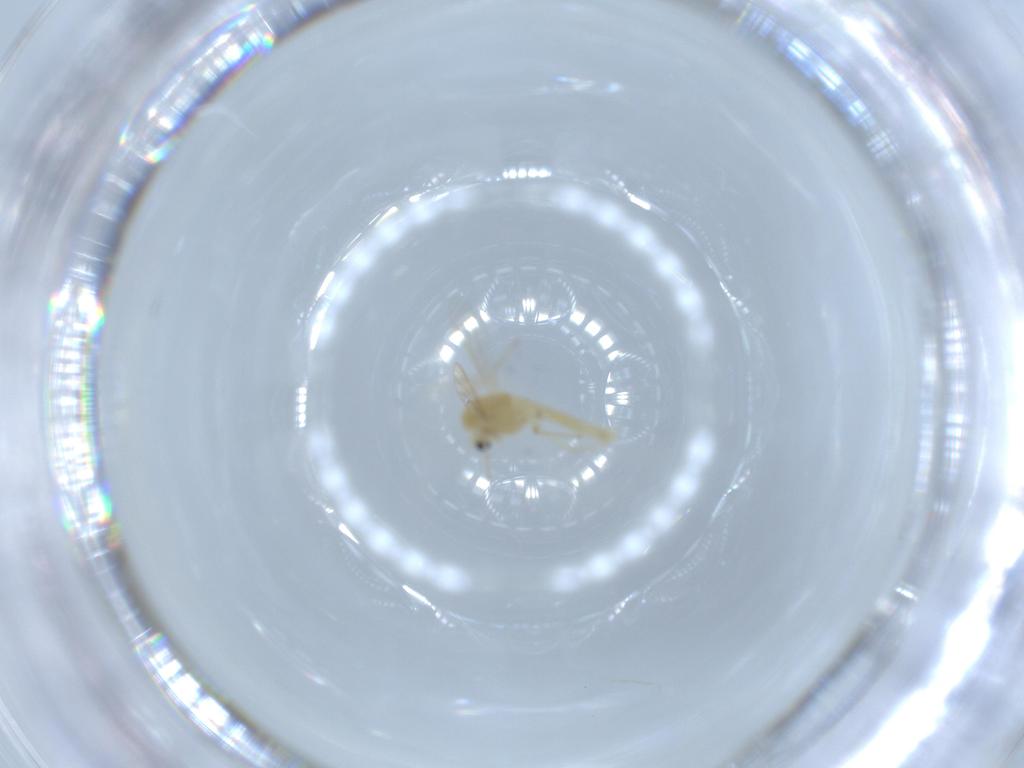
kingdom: Animalia
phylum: Arthropoda
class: Insecta
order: Diptera
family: Chironomidae
